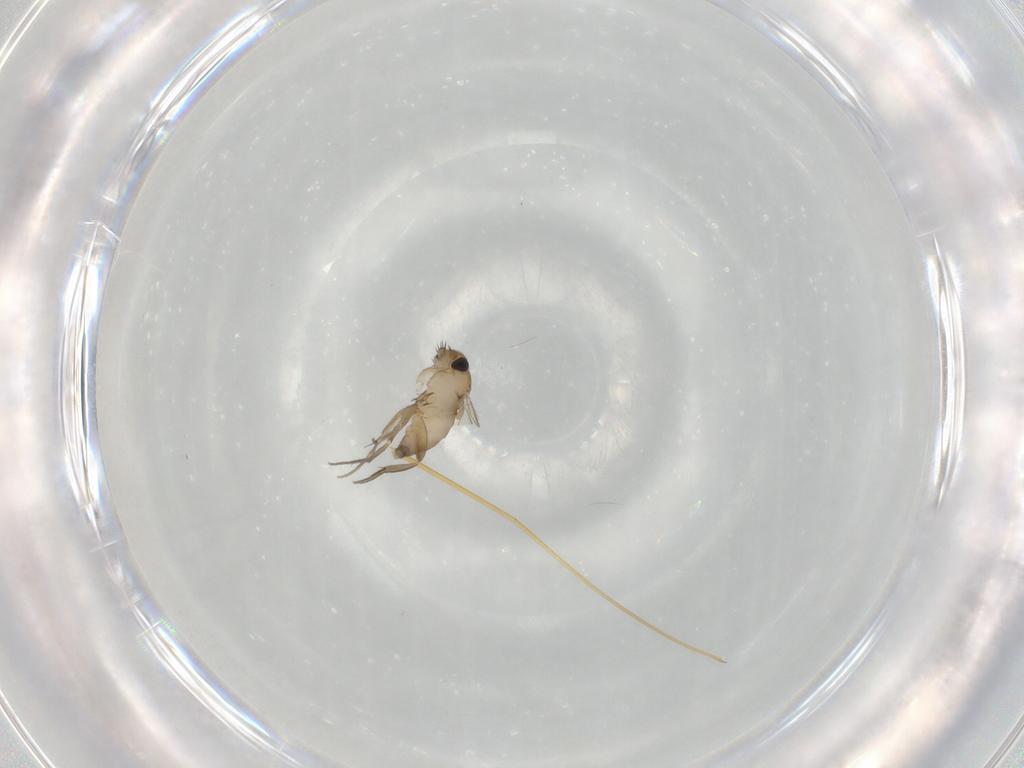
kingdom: Animalia
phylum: Arthropoda
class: Insecta
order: Diptera
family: Phoridae
